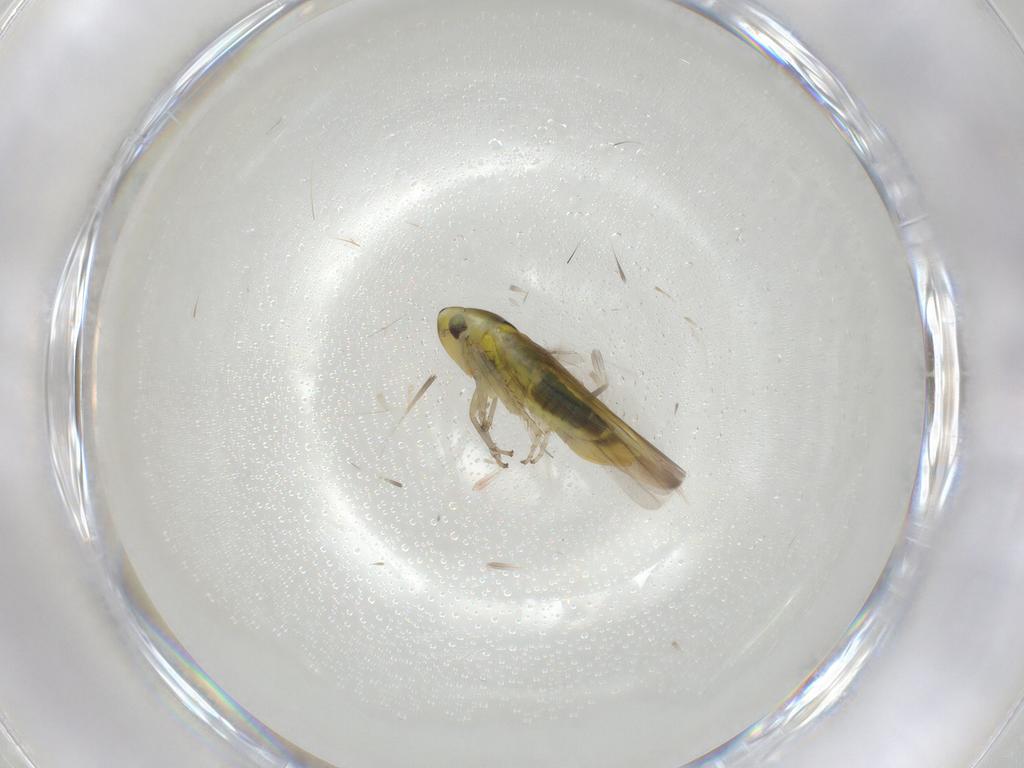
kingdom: Animalia
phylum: Arthropoda
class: Insecta
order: Hemiptera
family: Cicadellidae
